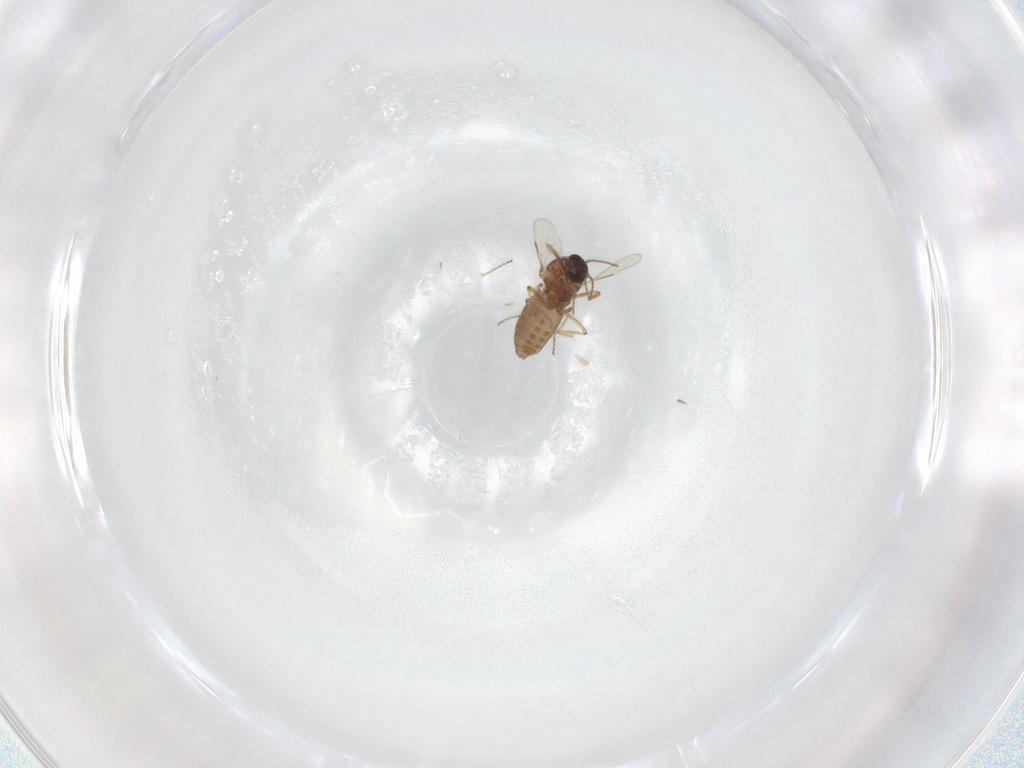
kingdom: Animalia
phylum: Arthropoda
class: Insecta
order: Diptera
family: Ceratopogonidae
